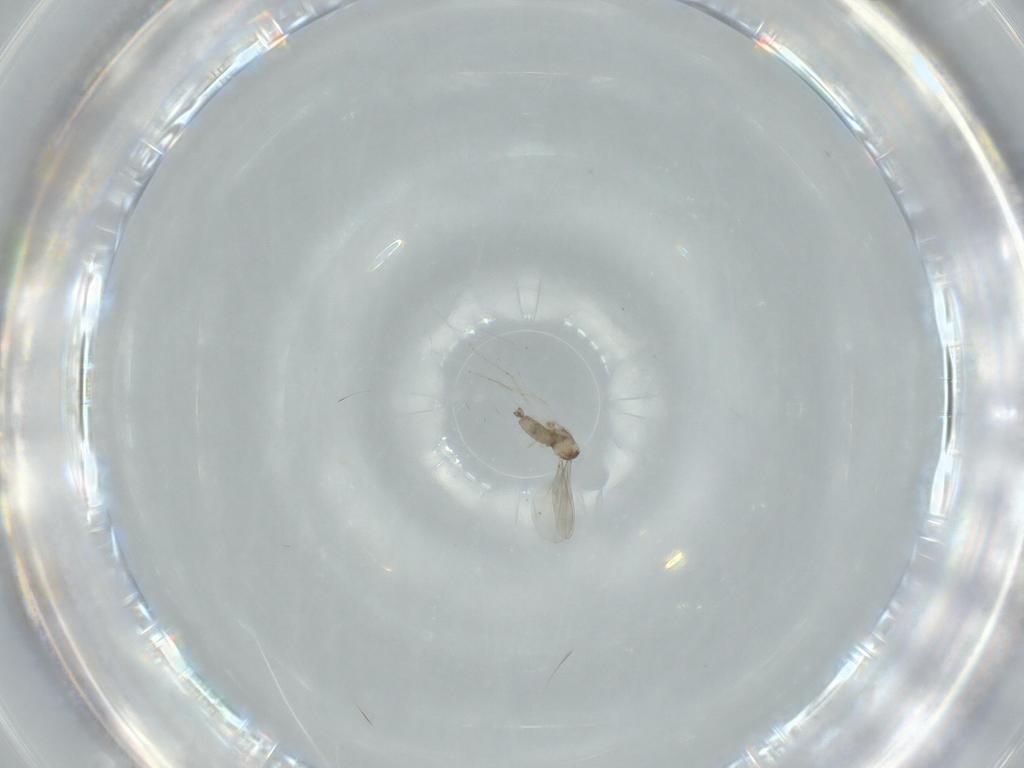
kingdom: Animalia
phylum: Arthropoda
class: Insecta
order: Diptera
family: Cecidomyiidae
